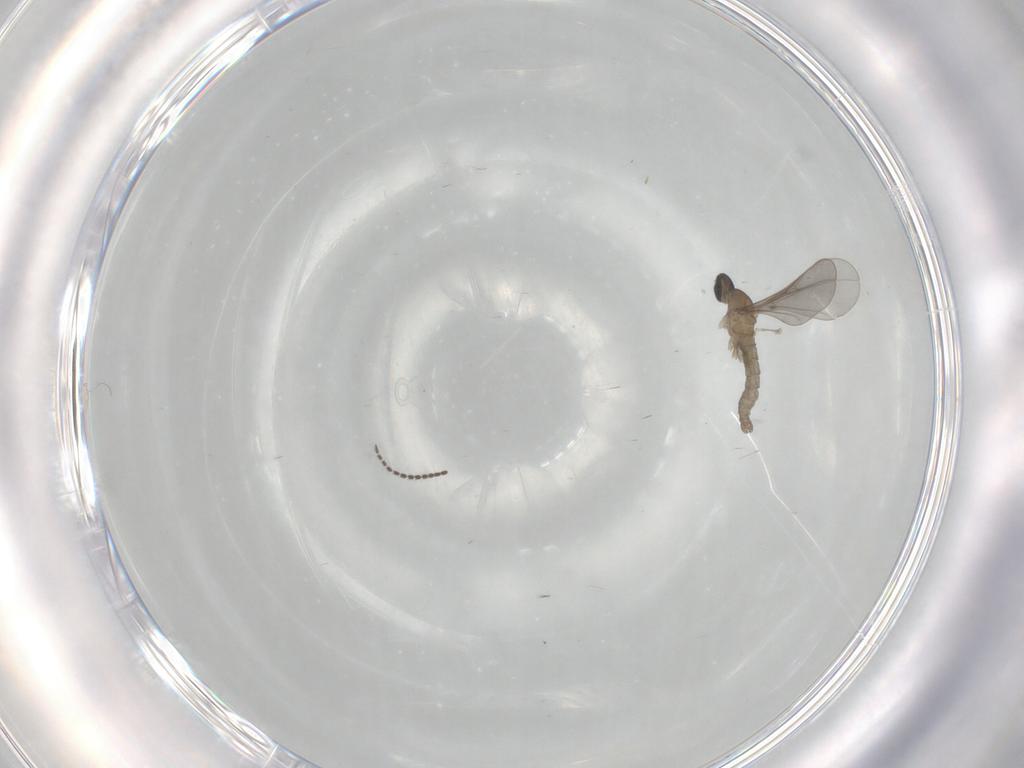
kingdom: Animalia
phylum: Arthropoda
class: Insecta
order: Diptera
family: Cecidomyiidae
